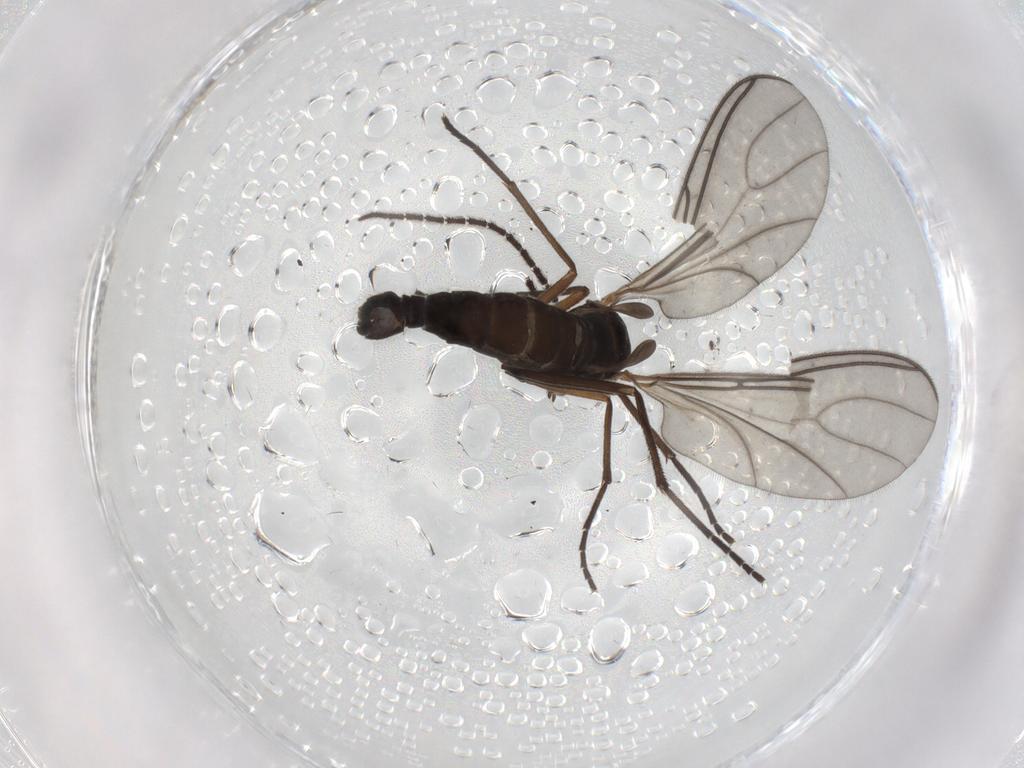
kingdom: Animalia
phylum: Arthropoda
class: Insecta
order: Diptera
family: Sciaridae
